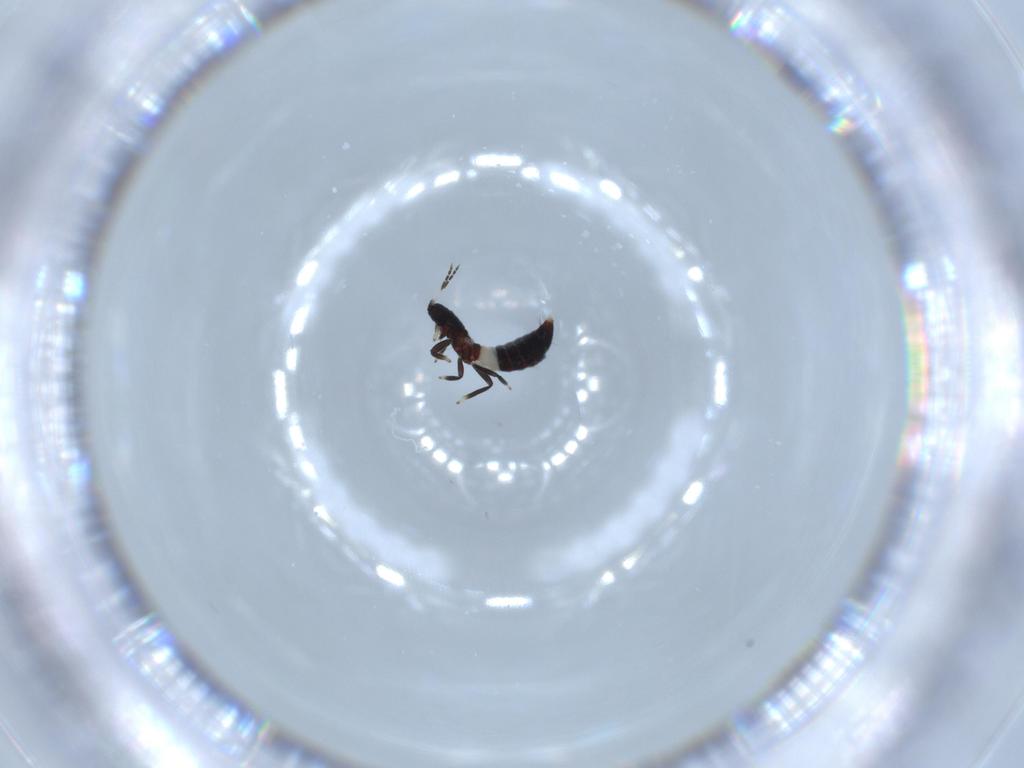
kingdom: Animalia
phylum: Arthropoda
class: Insecta
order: Thysanoptera
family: Aeolothripidae
